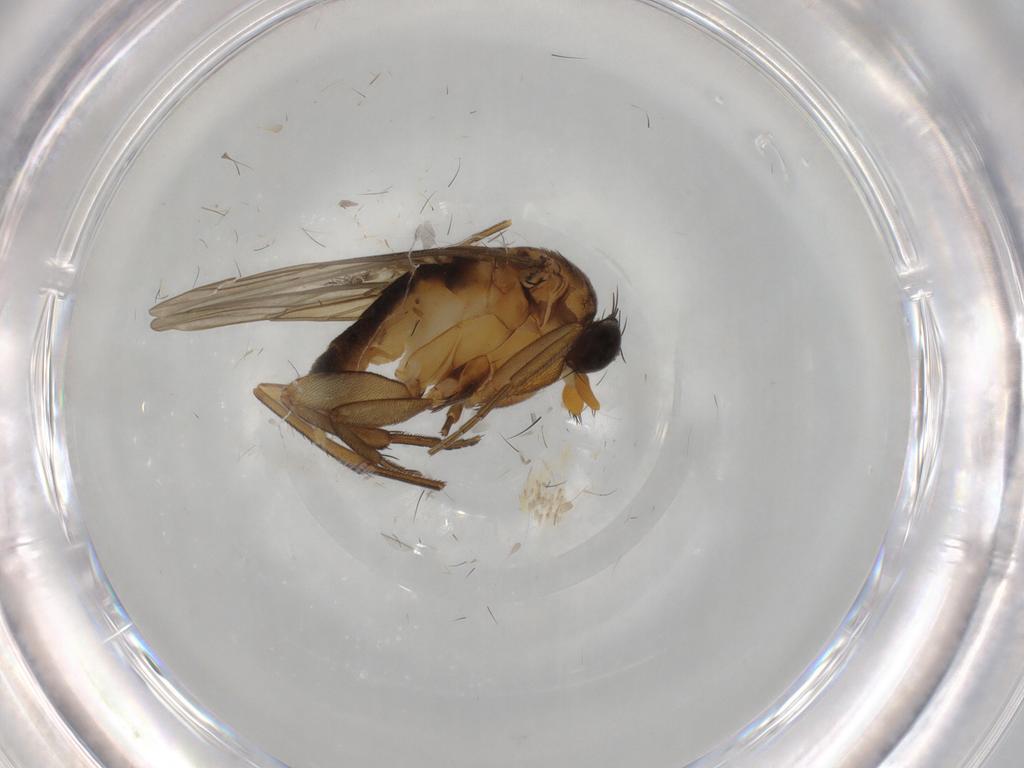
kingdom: Animalia
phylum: Arthropoda
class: Insecta
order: Diptera
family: Phoridae
